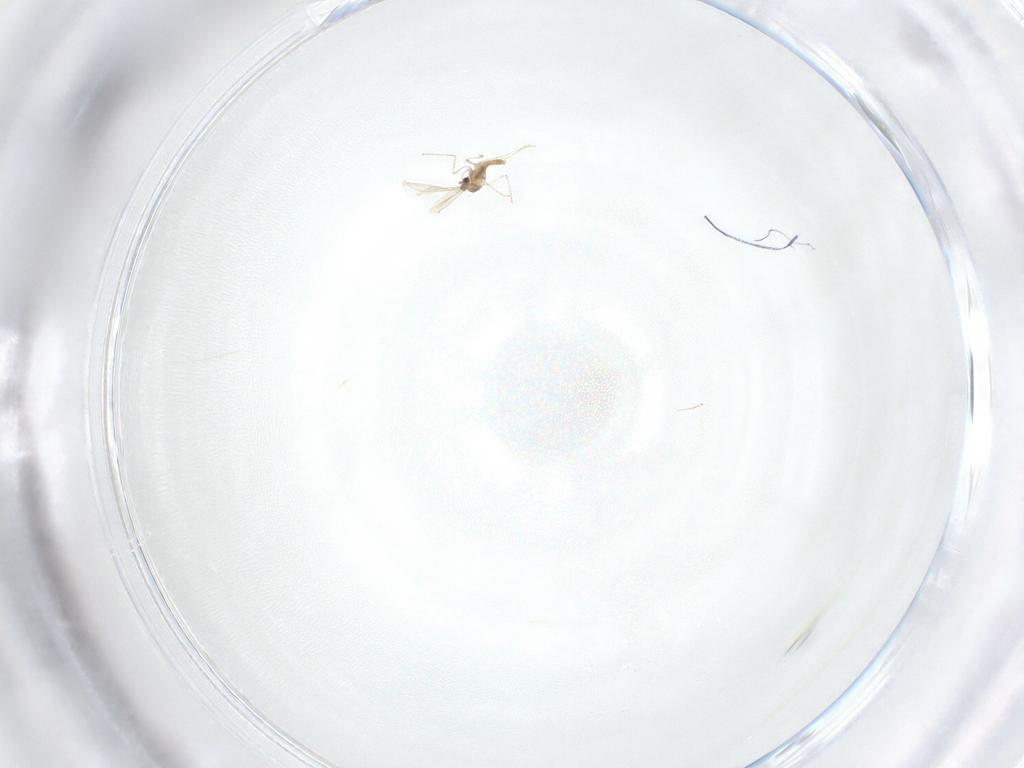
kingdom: Animalia
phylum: Arthropoda
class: Insecta
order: Diptera
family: Cecidomyiidae
